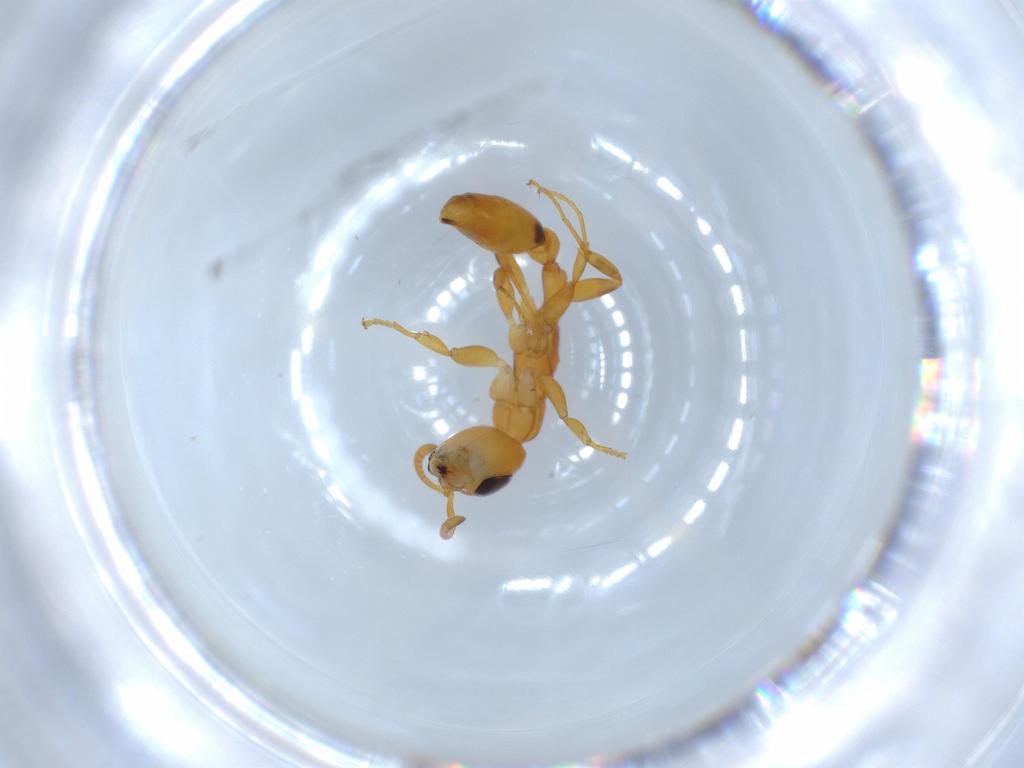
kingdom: Animalia
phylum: Arthropoda
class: Insecta
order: Hymenoptera
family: Formicidae
